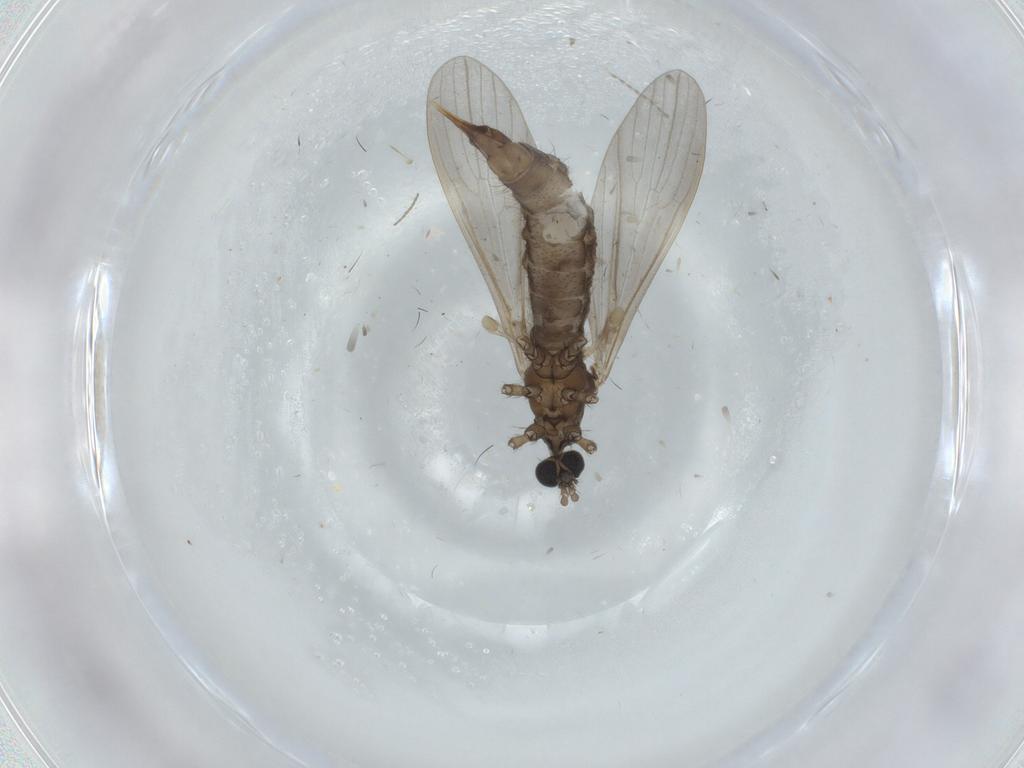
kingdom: Animalia
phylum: Arthropoda
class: Insecta
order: Diptera
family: Limoniidae
